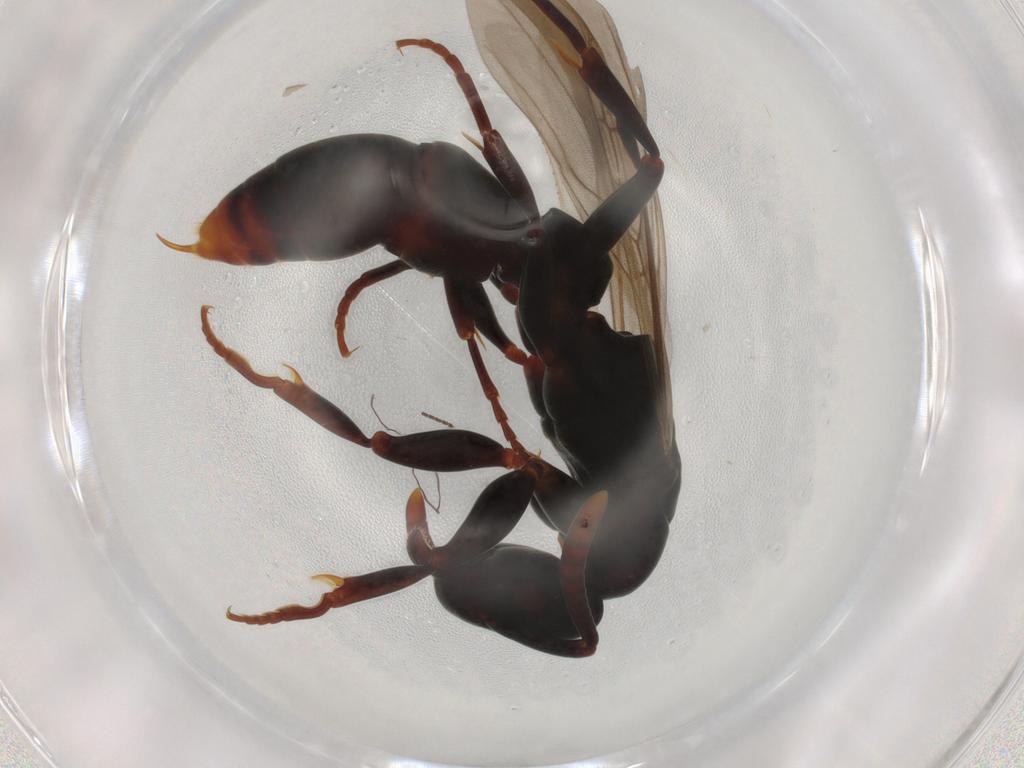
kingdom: Animalia
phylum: Arthropoda
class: Insecta
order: Hymenoptera
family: Formicidae
